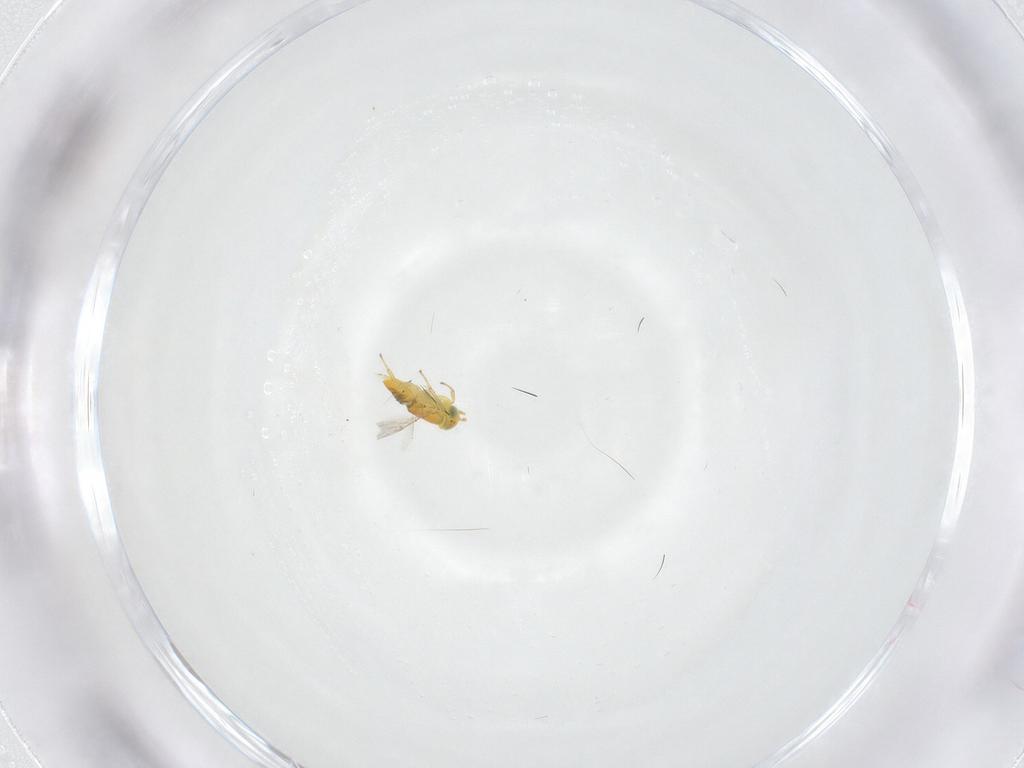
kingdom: Animalia
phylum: Arthropoda
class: Insecta
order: Hymenoptera
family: Encyrtidae
